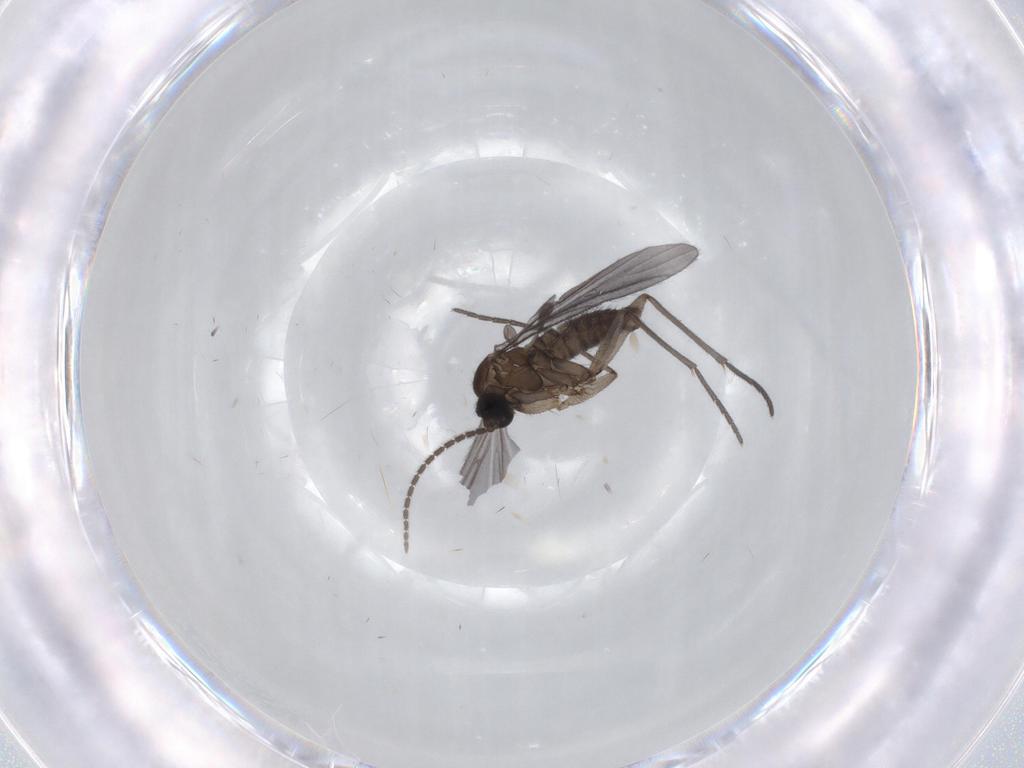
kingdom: Animalia
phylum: Arthropoda
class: Insecta
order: Diptera
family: Sciaridae
